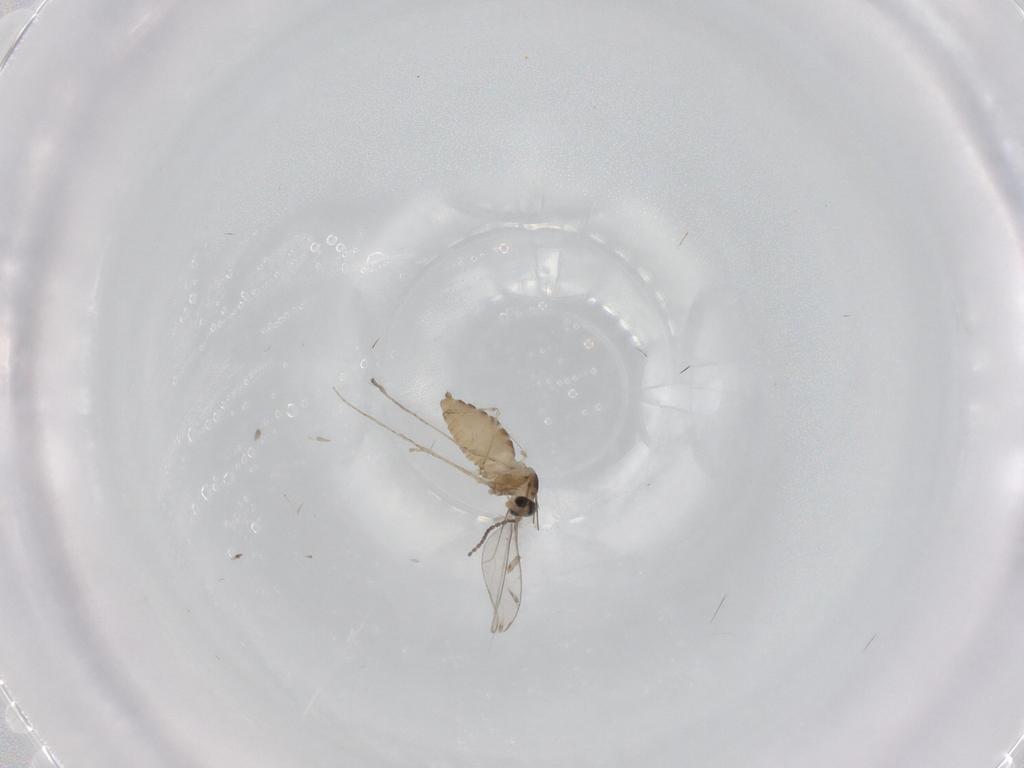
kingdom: Animalia
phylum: Arthropoda
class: Insecta
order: Diptera
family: Cecidomyiidae
